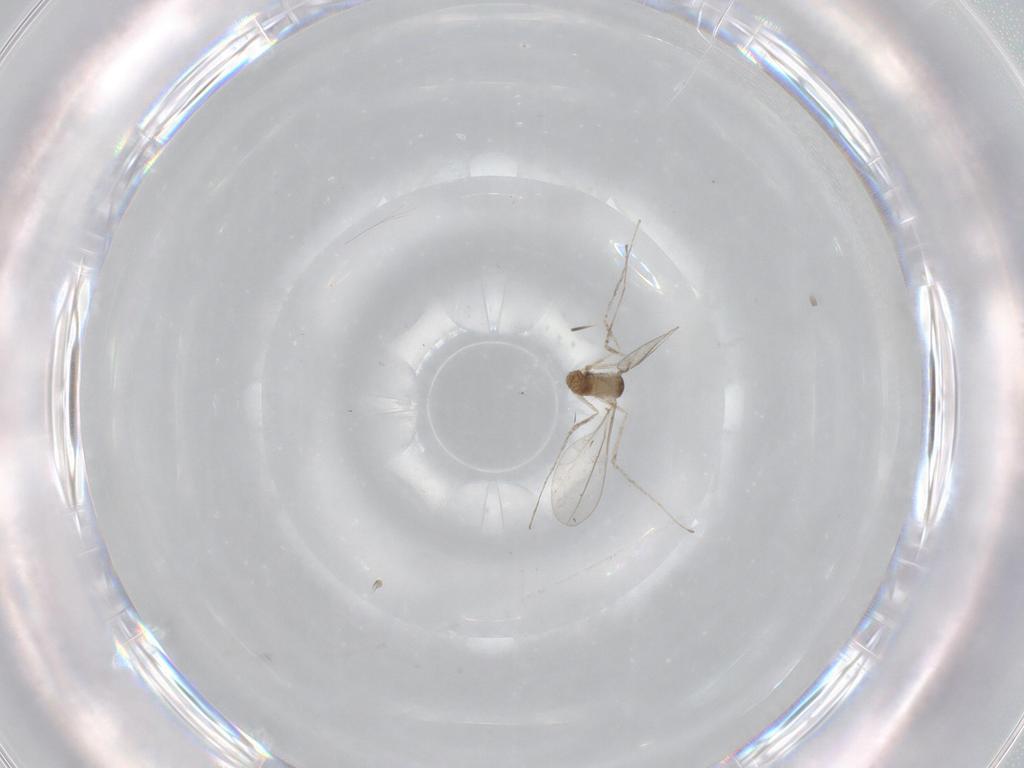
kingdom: Animalia
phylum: Arthropoda
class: Insecta
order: Diptera
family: Cecidomyiidae
